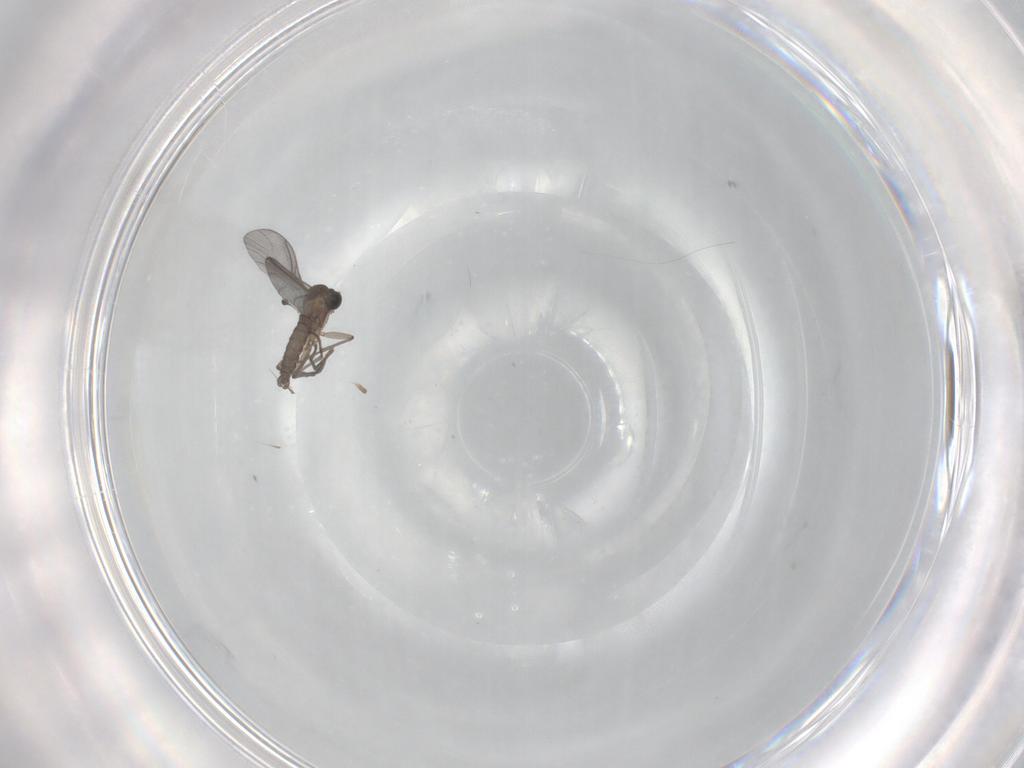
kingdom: Animalia
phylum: Arthropoda
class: Insecta
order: Diptera
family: Sciaridae
